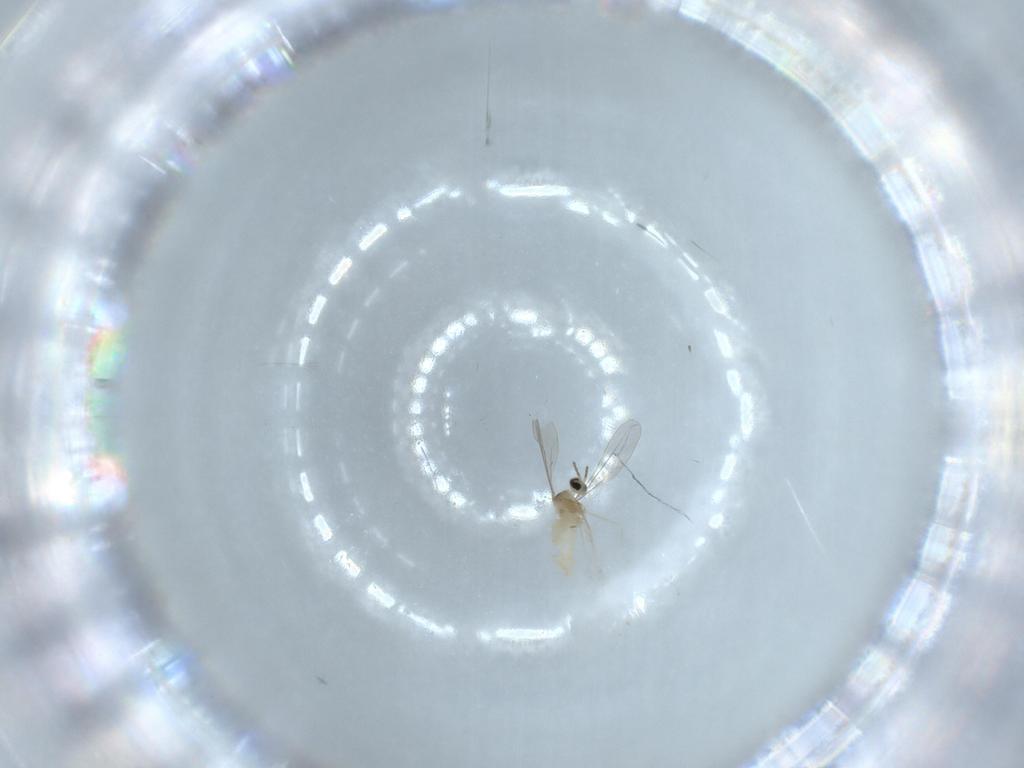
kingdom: Animalia
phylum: Arthropoda
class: Insecta
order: Diptera
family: Cecidomyiidae
